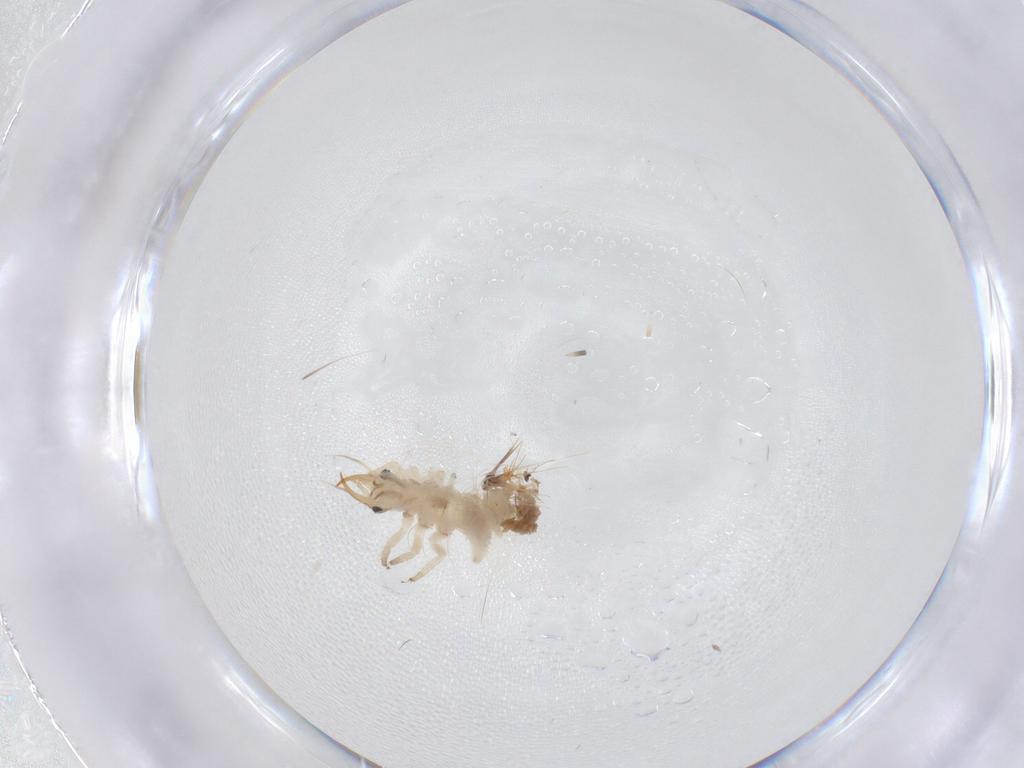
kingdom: Animalia
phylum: Arthropoda
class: Insecta
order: Neuroptera
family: Chrysopidae
